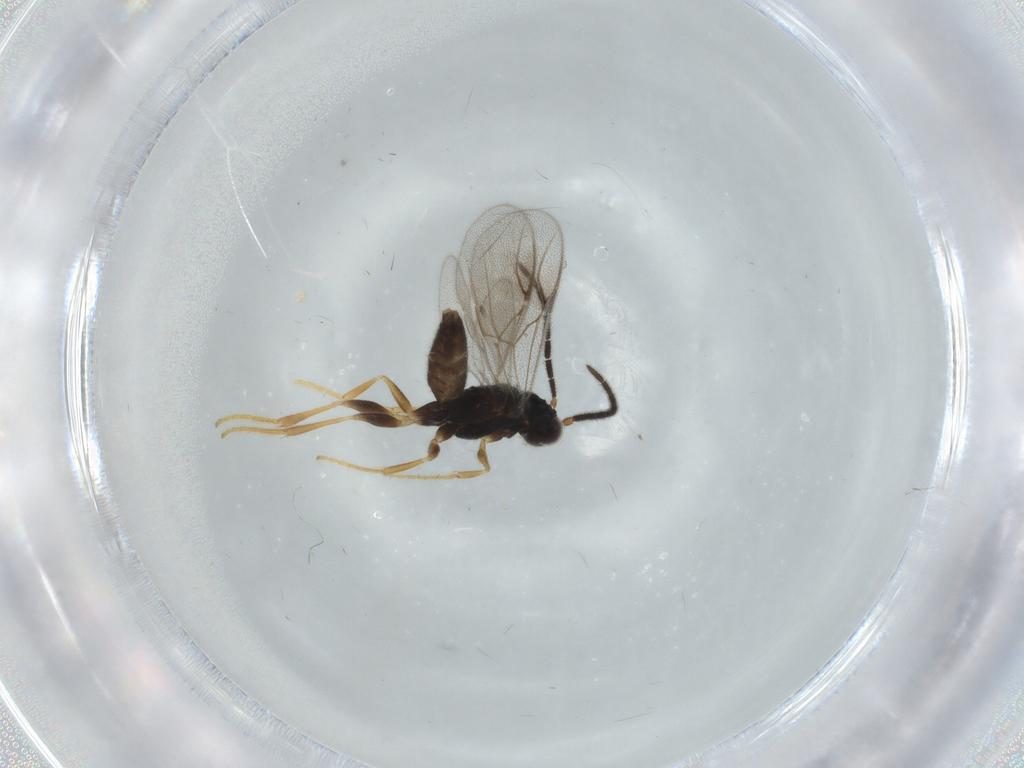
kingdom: Animalia
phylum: Arthropoda
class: Insecta
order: Hymenoptera
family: Dryinidae
